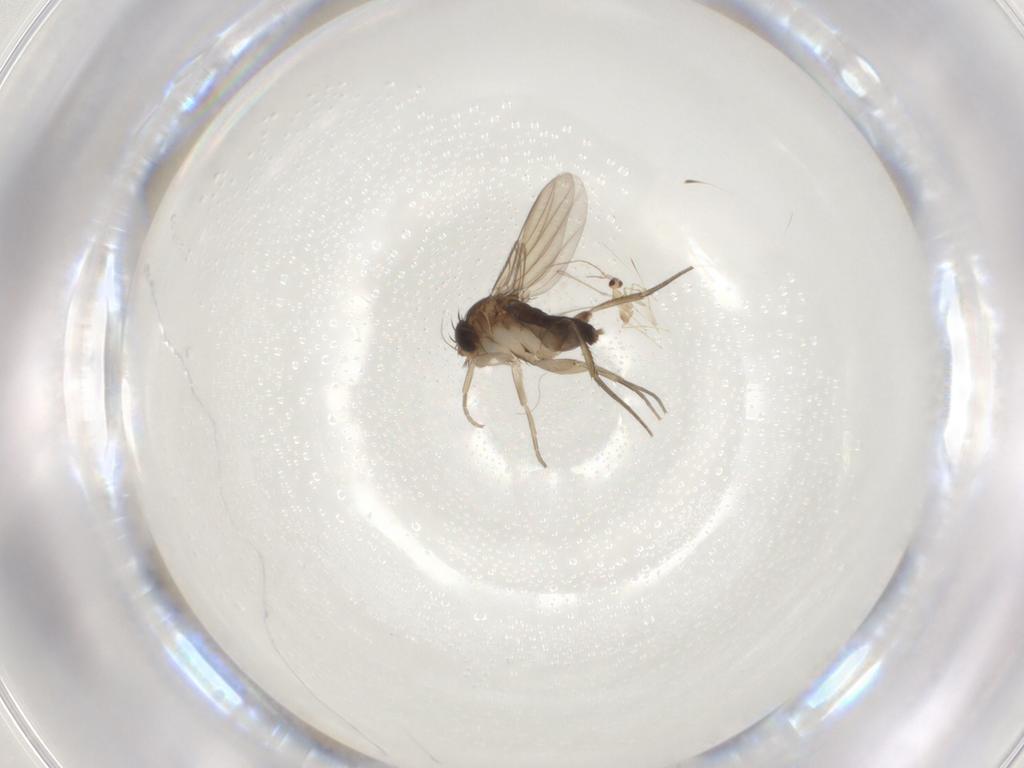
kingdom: Animalia
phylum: Arthropoda
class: Insecta
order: Diptera
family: Phoridae
